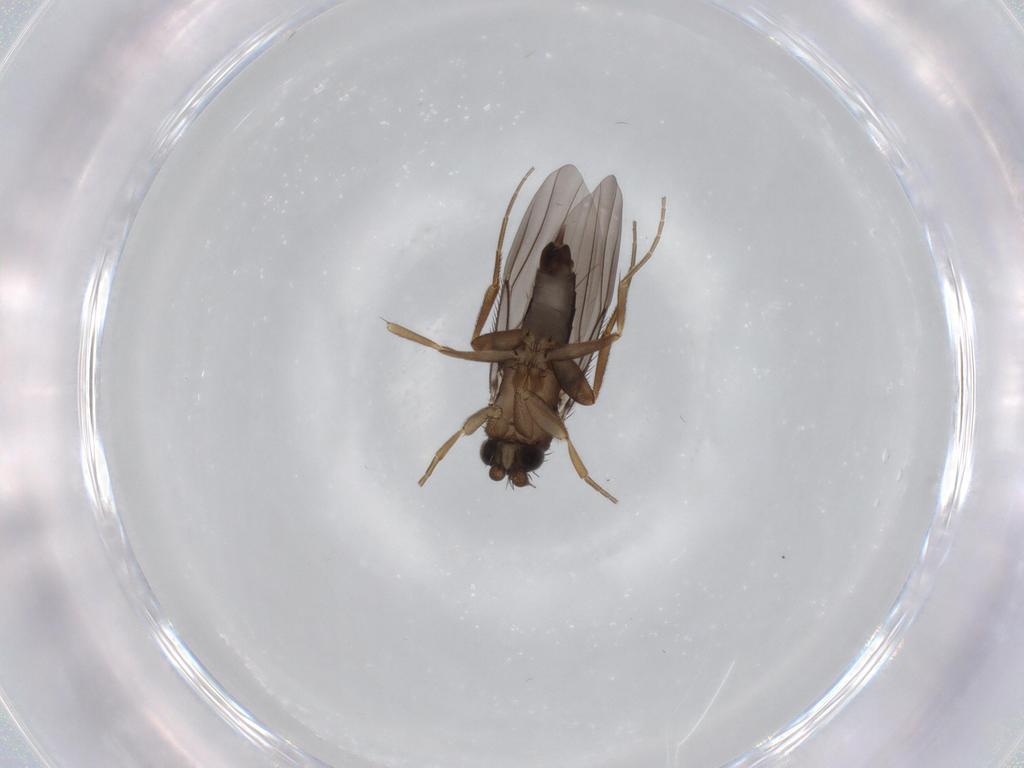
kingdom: Animalia
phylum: Arthropoda
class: Insecta
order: Diptera
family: Phoridae
